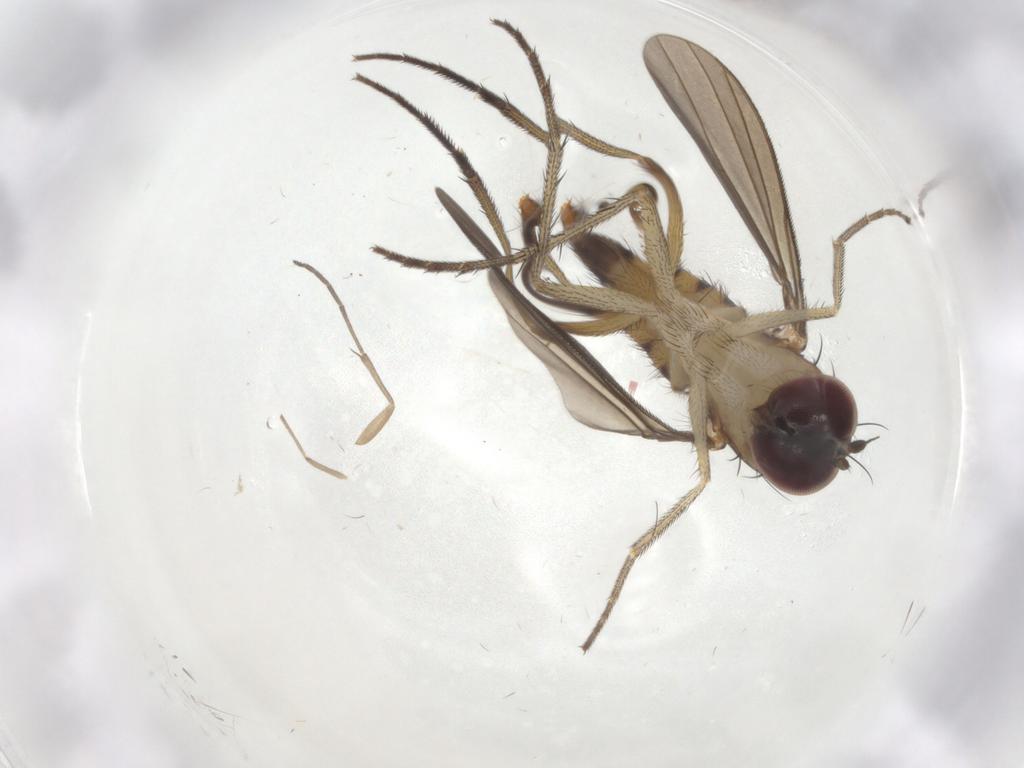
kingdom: Animalia
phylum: Arthropoda
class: Insecta
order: Diptera
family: Dolichopodidae
